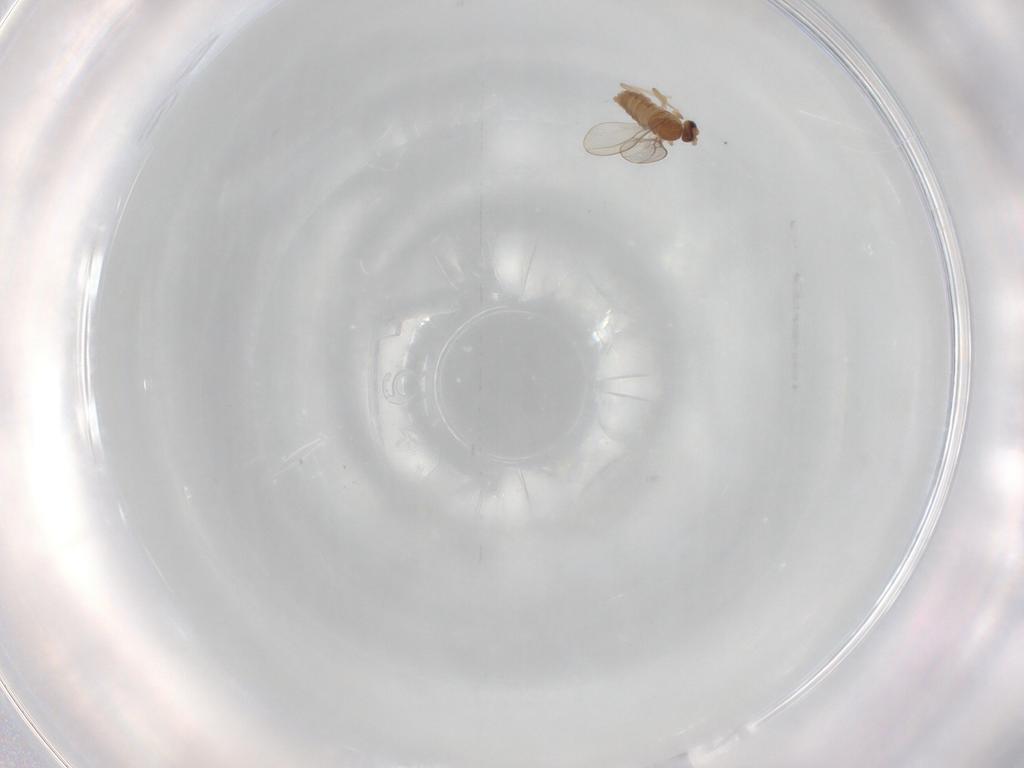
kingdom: Animalia
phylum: Arthropoda
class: Insecta
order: Diptera
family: Cecidomyiidae
